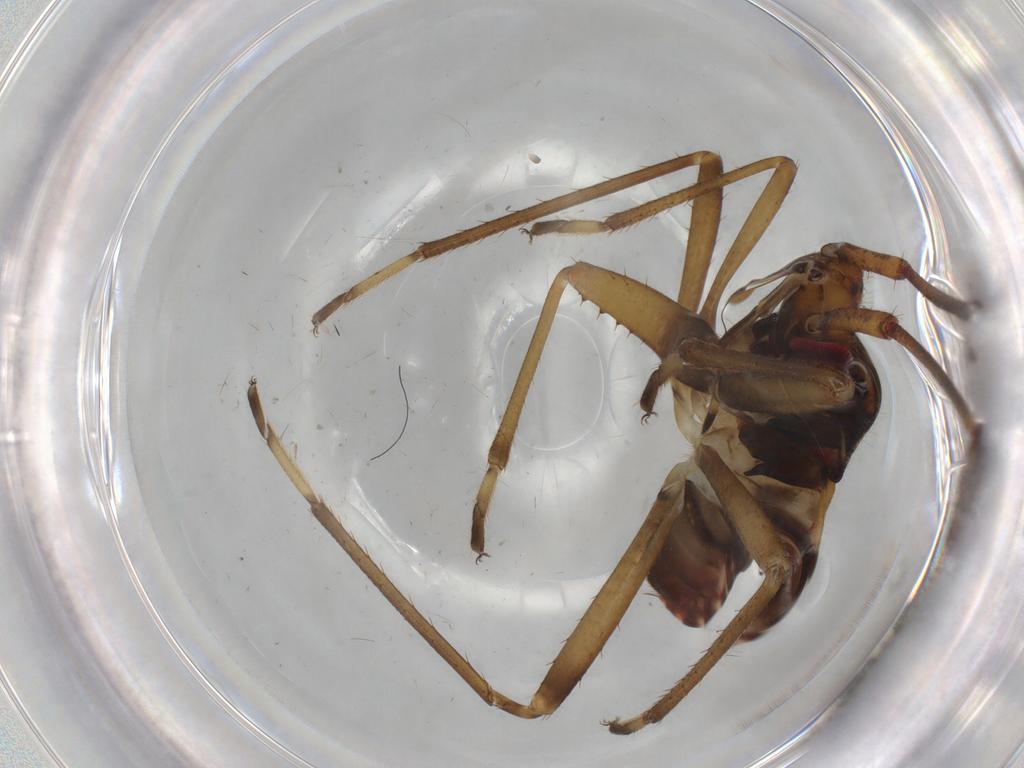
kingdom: Animalia
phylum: Arthropoda
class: Insecta
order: Hemiptera
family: Rhyparochromidae
